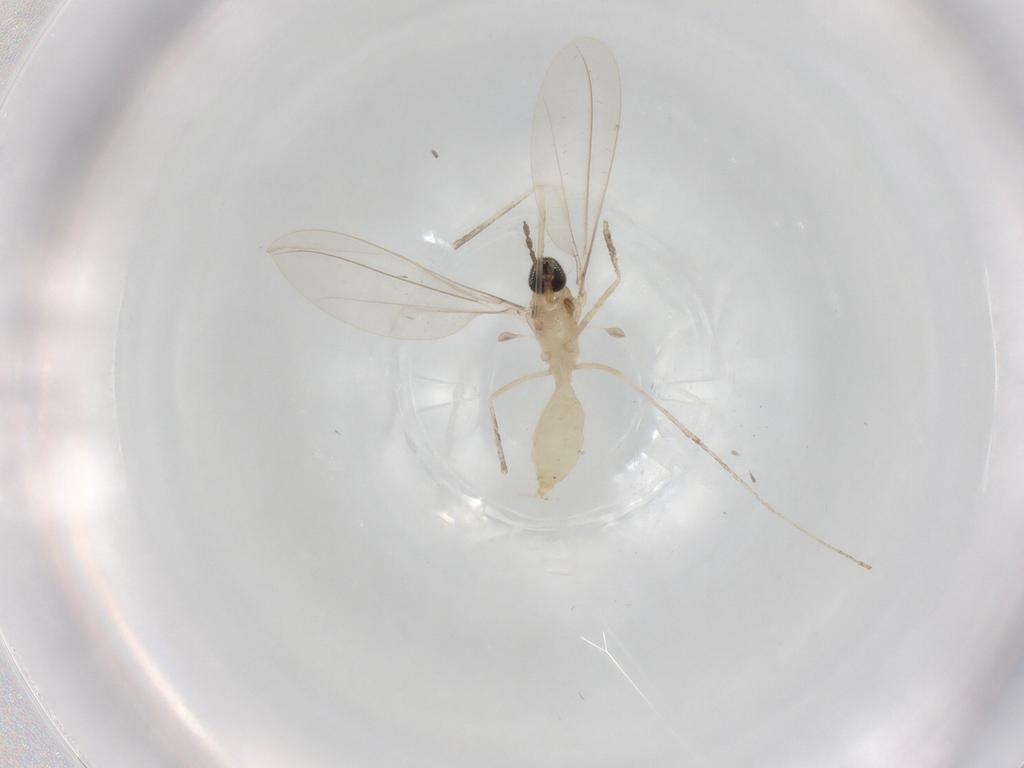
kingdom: Animalia
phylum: Arthropoda
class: Insecta
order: Diptera
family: Cecidomyiidae
